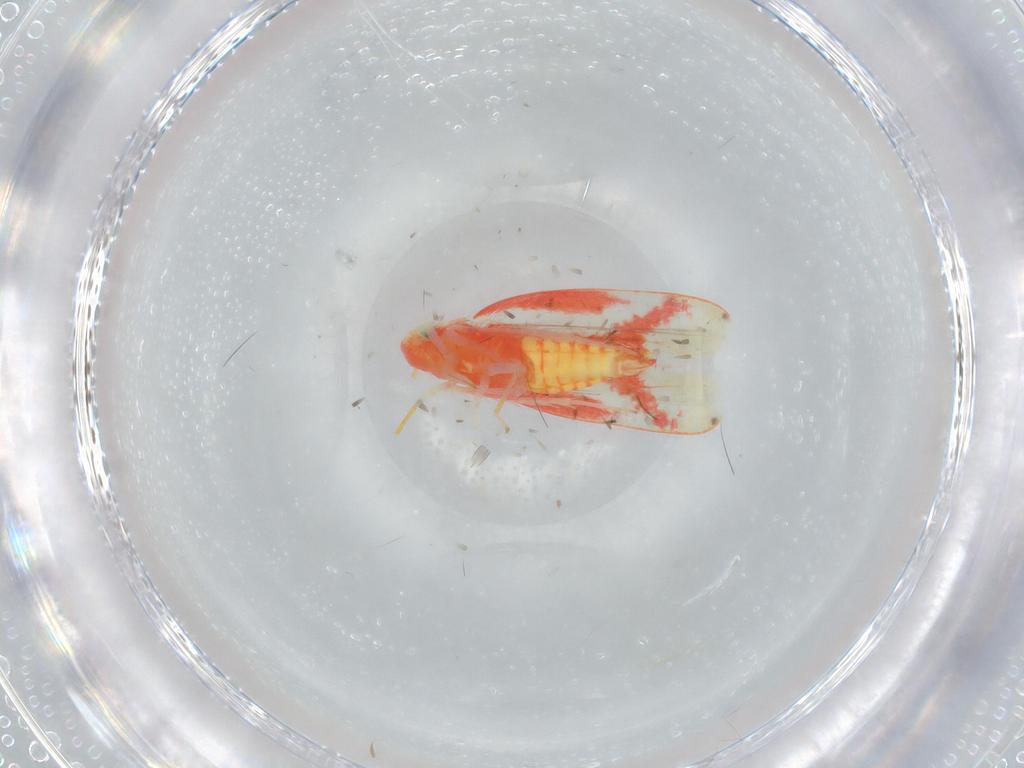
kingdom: Animalia
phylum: Arthropoda
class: Insecta
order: Hemiptera
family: Cicadellidae
